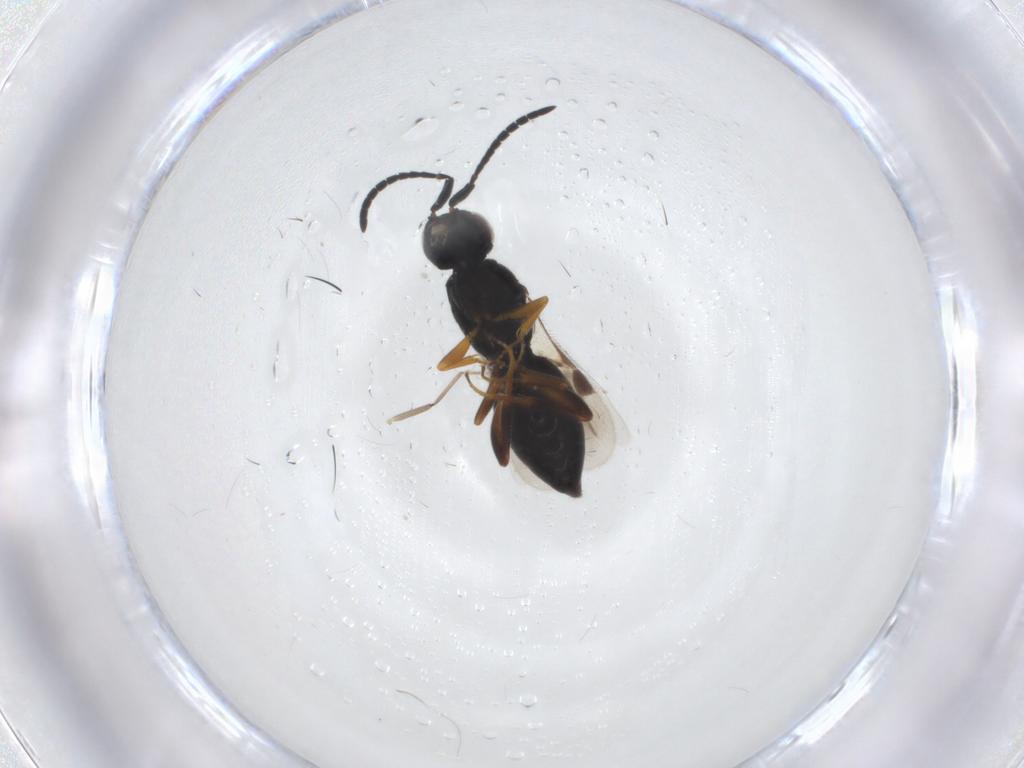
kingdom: Animalia
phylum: Arthropoda
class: Insecta
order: Hymenoptera
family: Megaspilidae
